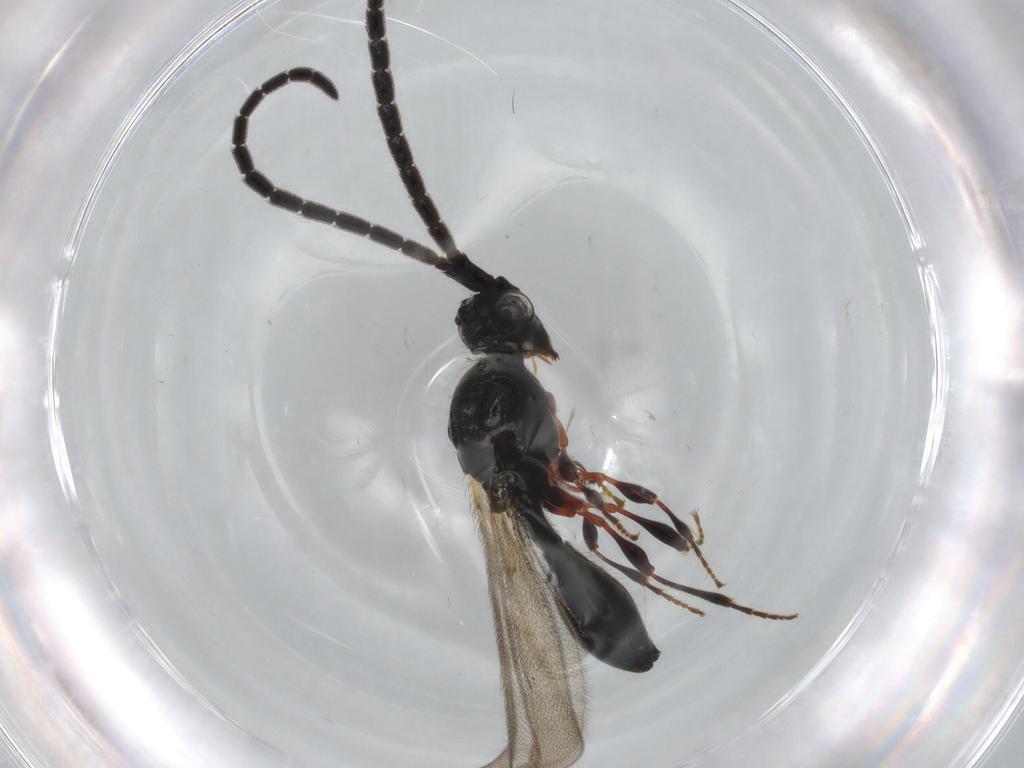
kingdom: Animalia
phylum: Arthropoda
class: Insecta
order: Hymenoptera
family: Diapriidae
